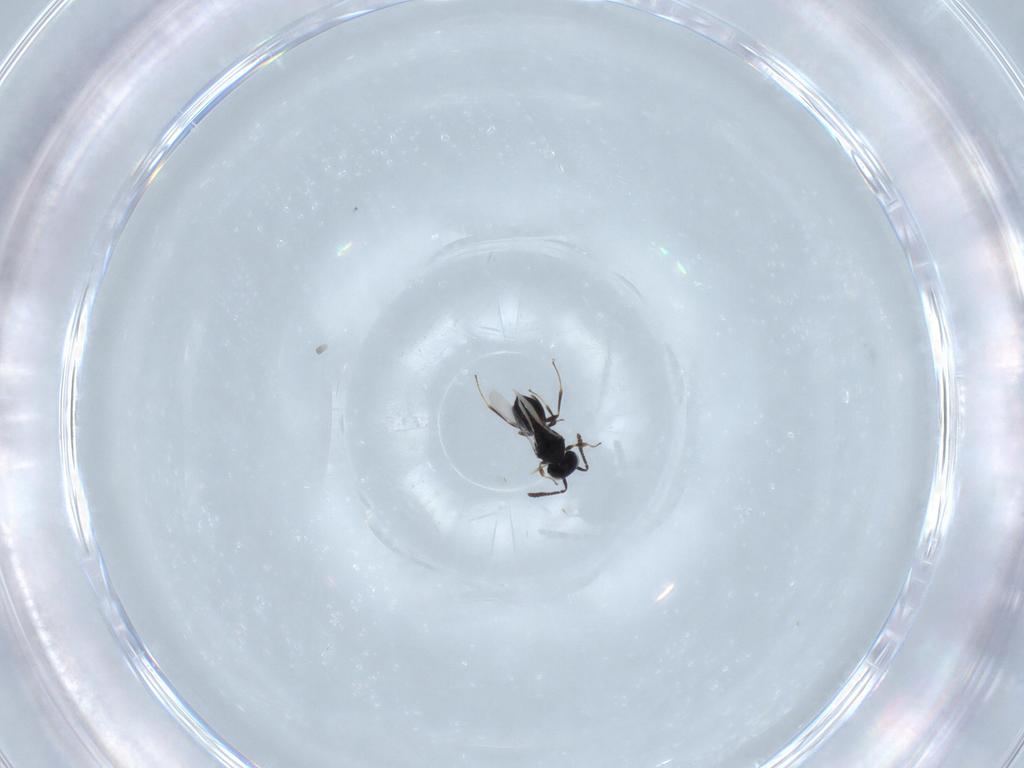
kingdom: Animalia
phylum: Arthropoda
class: Insecta
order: Hymenoptera
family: Scelionidae
